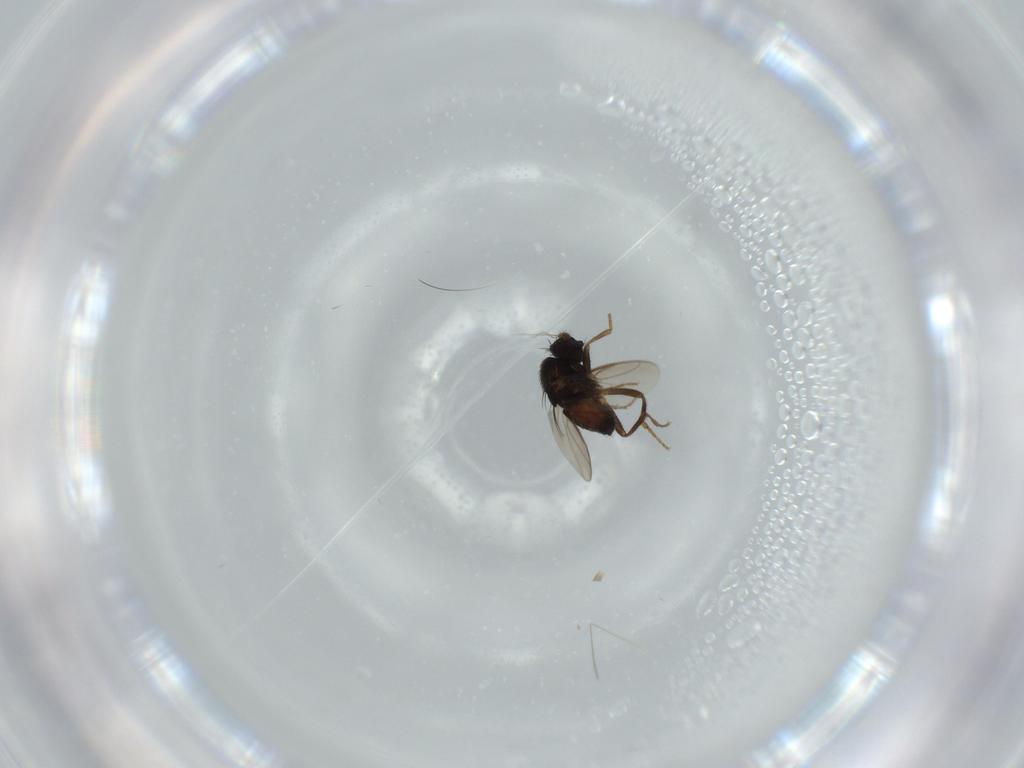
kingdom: Animalia
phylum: Arthropoda
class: Insecta
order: Diptera
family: Sphaeroceridae
